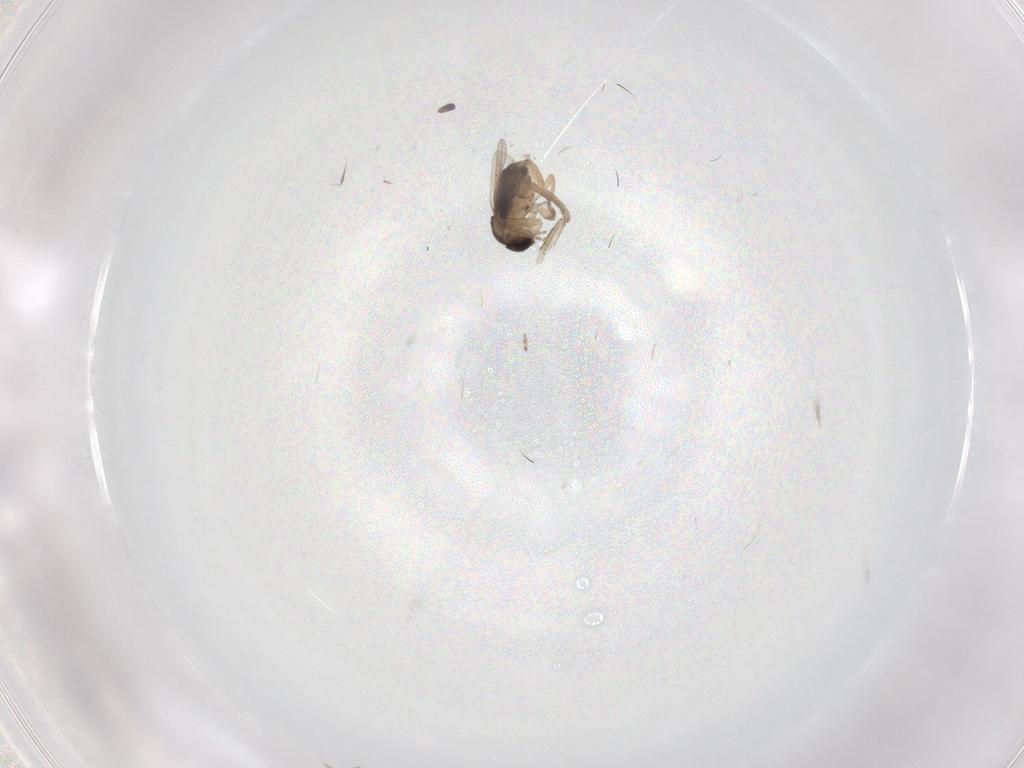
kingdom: Animalia
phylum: Arthropoda
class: Insecta
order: Diptera
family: Phoridae
